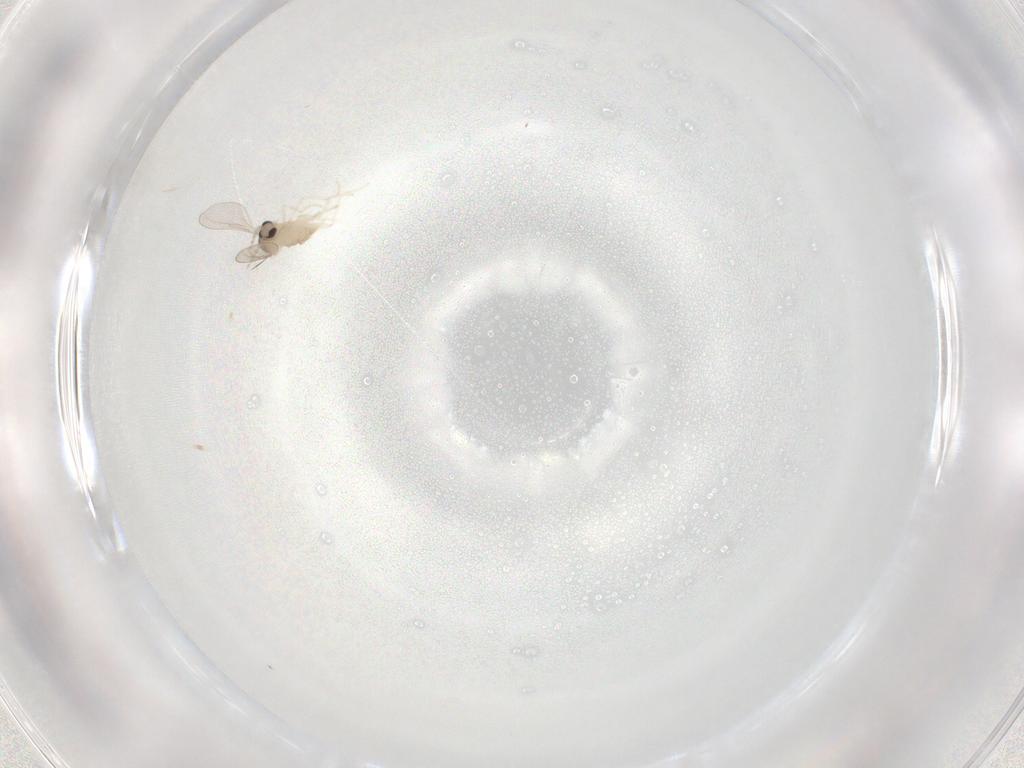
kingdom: Animalia
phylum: Arthropoda
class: Insecta
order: Diptera
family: Cecidomyiidae
